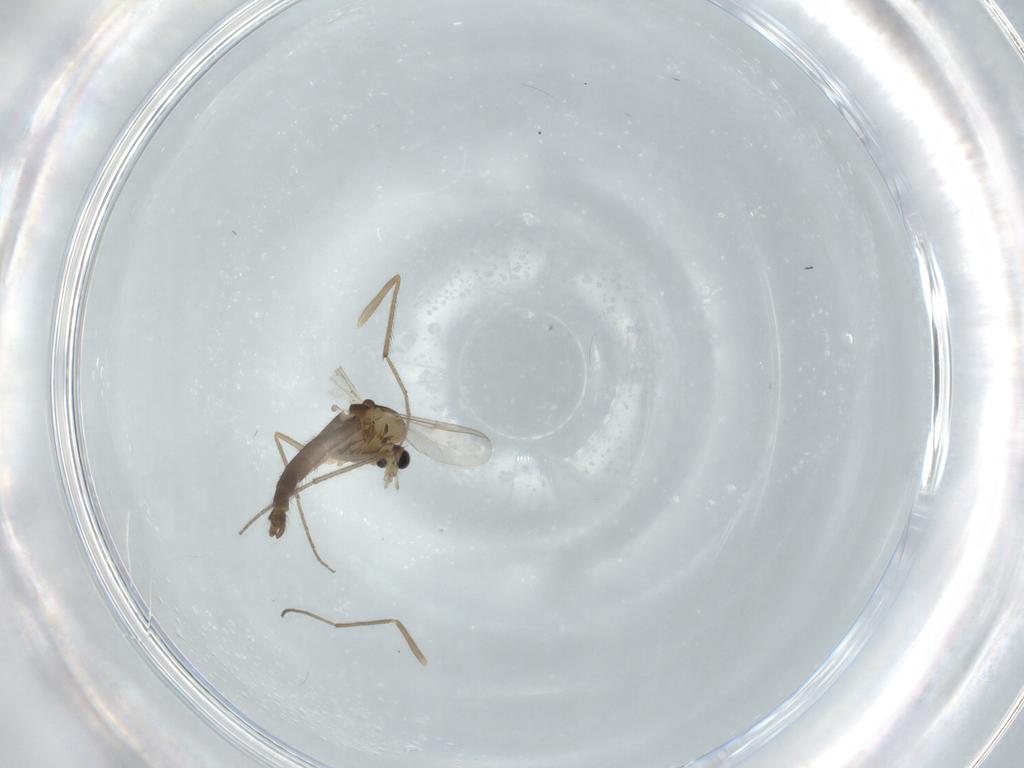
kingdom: Animalia
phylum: Arthropoda
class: Insecta
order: Diptera
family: Chironomidae
